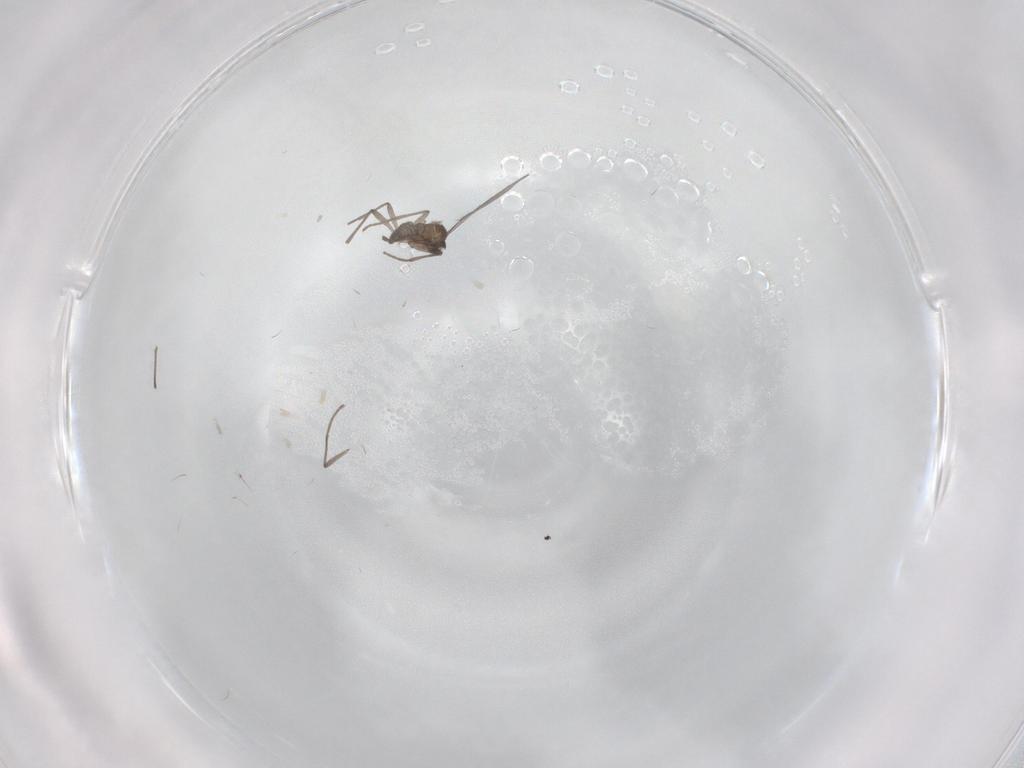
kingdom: Animalia
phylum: Arthropoda
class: Insecta
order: Diptera
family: Sciaridae
